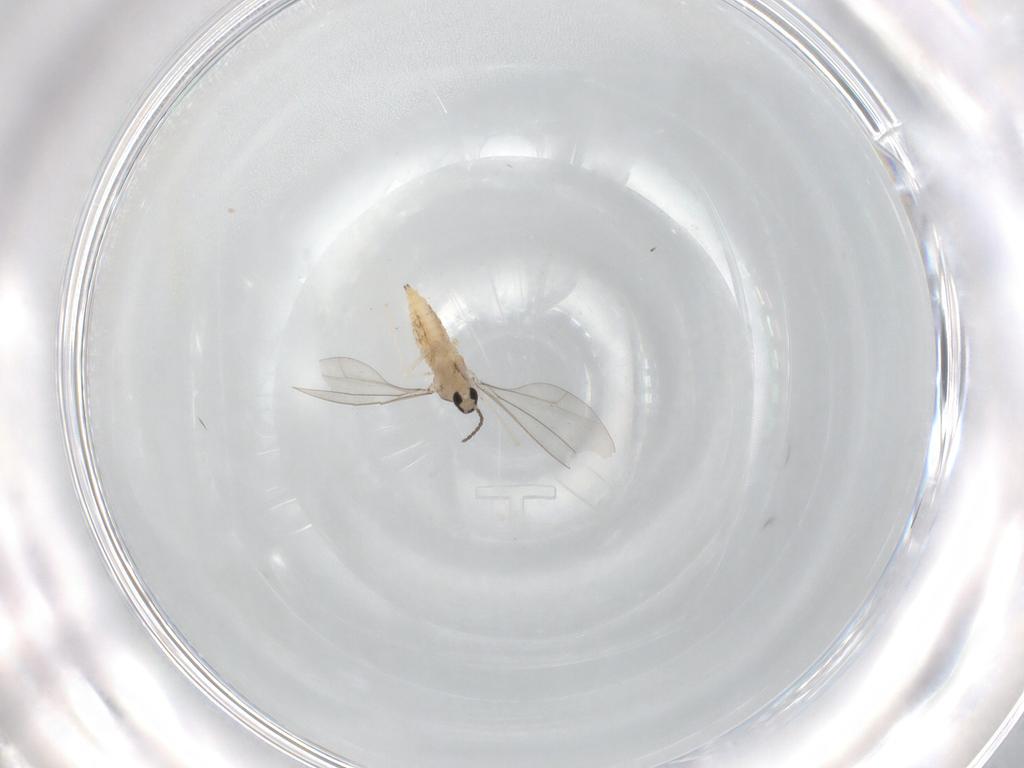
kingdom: Animalia
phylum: Arthropoda
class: Insecta
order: Diptera
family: Cecidomyiidae
